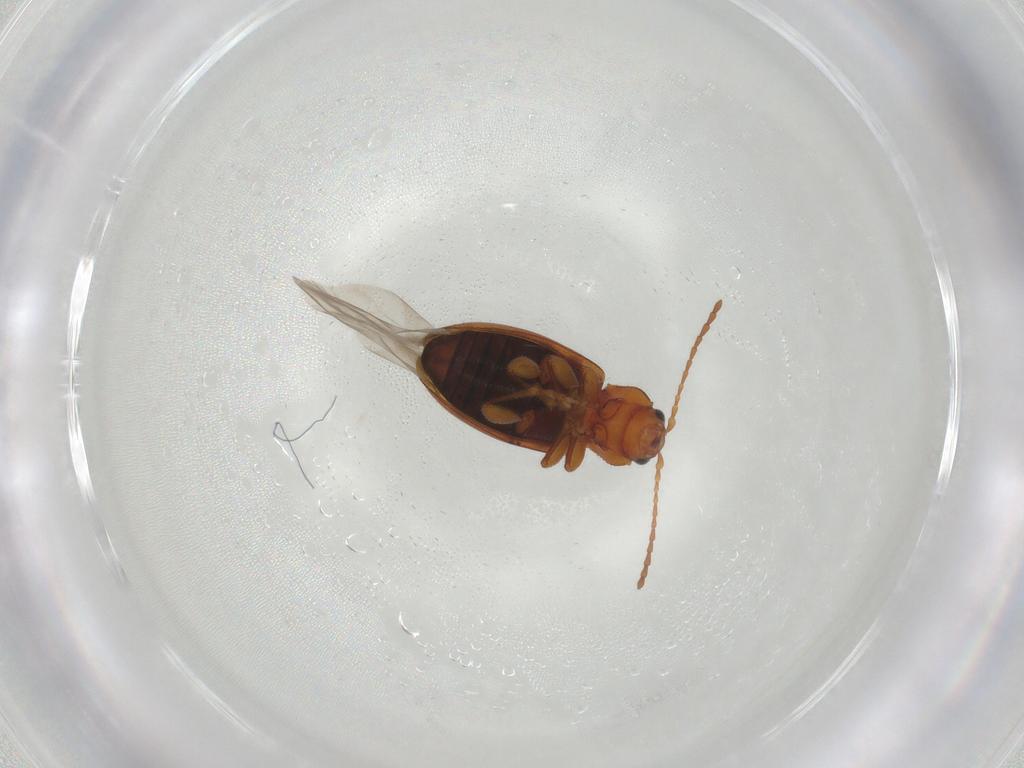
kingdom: Animalia
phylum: Arthropoda
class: Insecta
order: Coleoptera
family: Chrysomelidae
